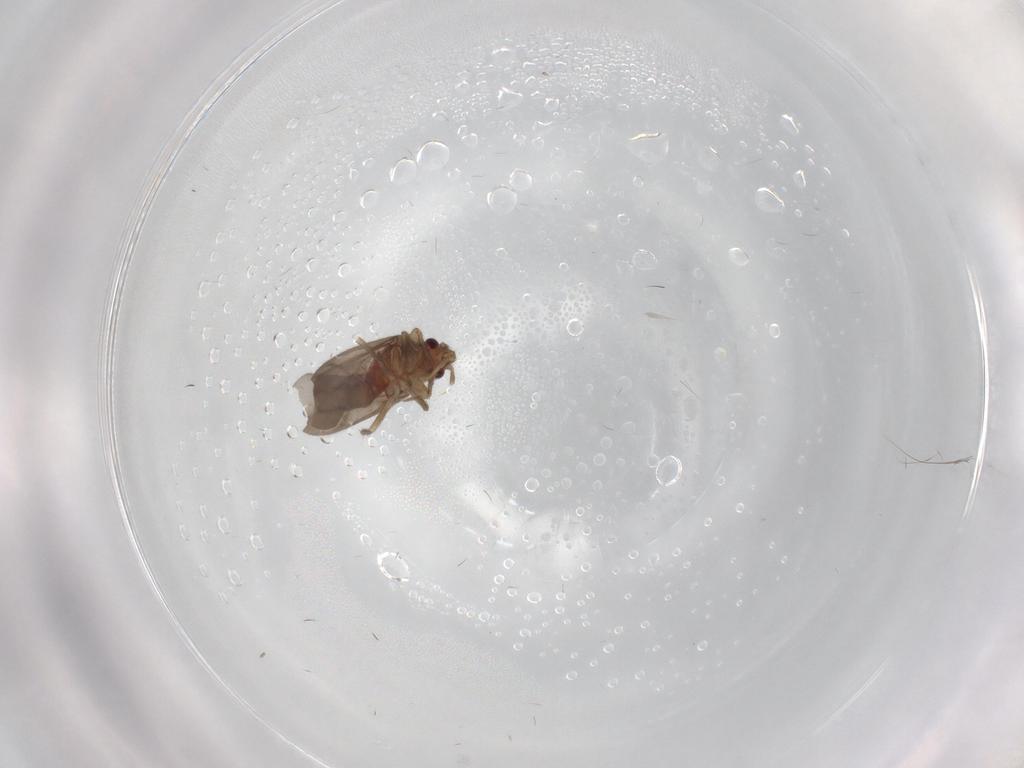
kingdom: Animalia
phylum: Arthropoda
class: Insecta
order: Hemiptera
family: Ceratocombidae
